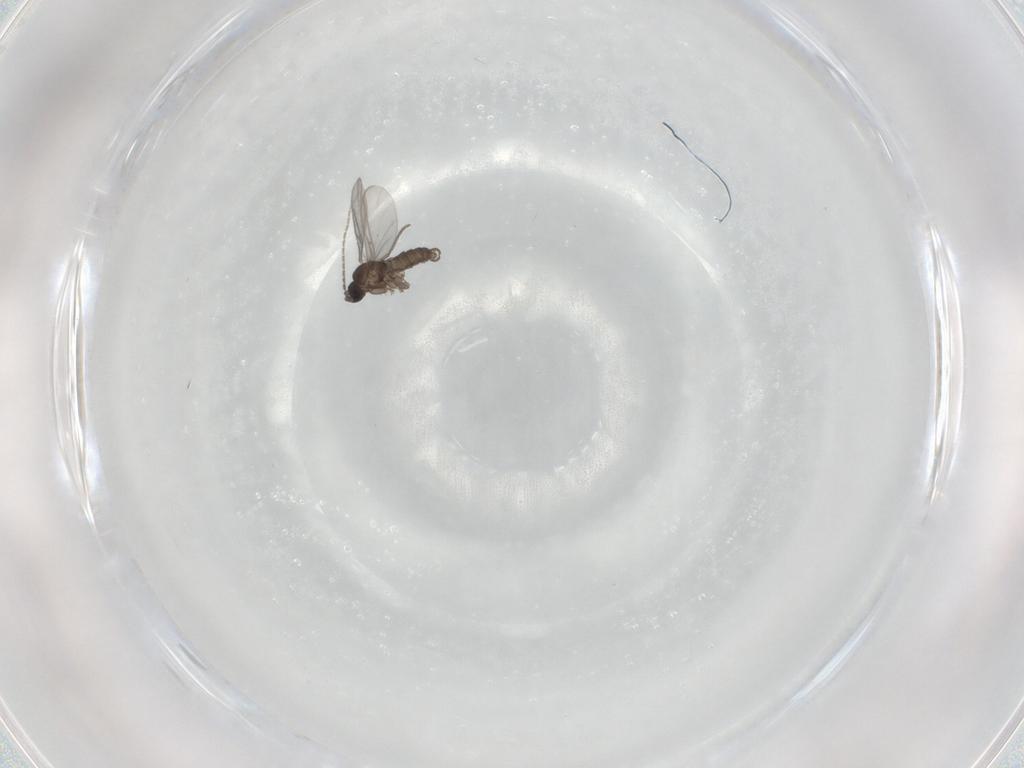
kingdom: Animalia
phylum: Arthropoda
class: Insecta
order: Diptera
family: Sciaridae
